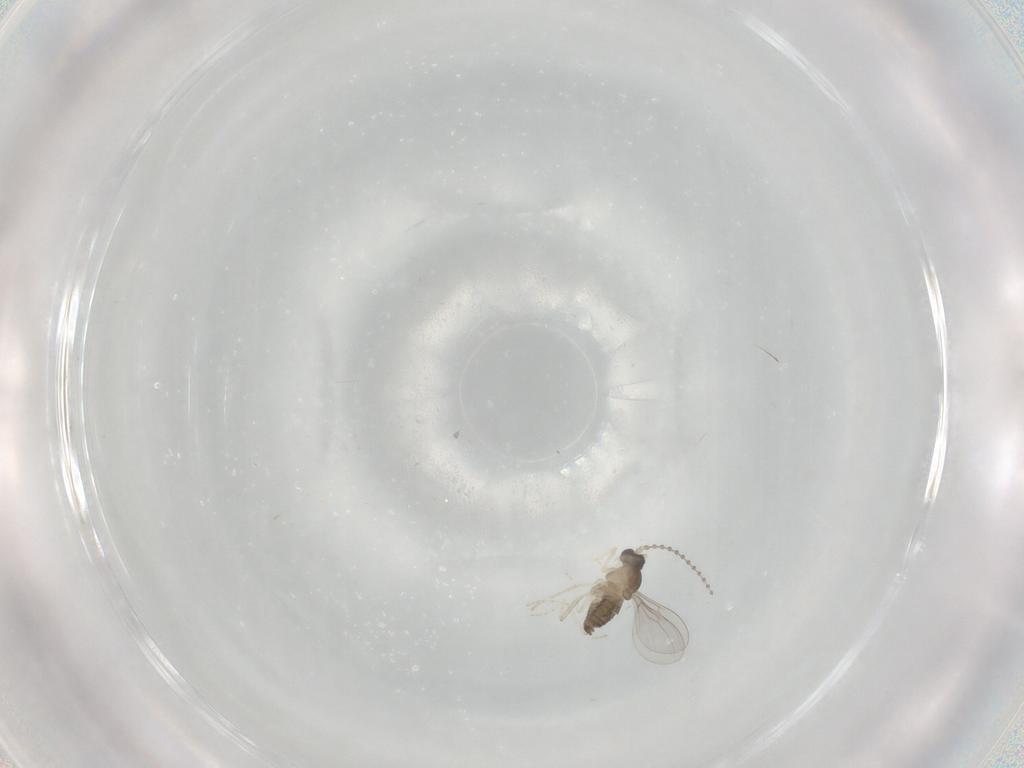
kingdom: Animalia
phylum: Arthropoda
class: Insecta
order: Diptera
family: Cecidomyiidae
